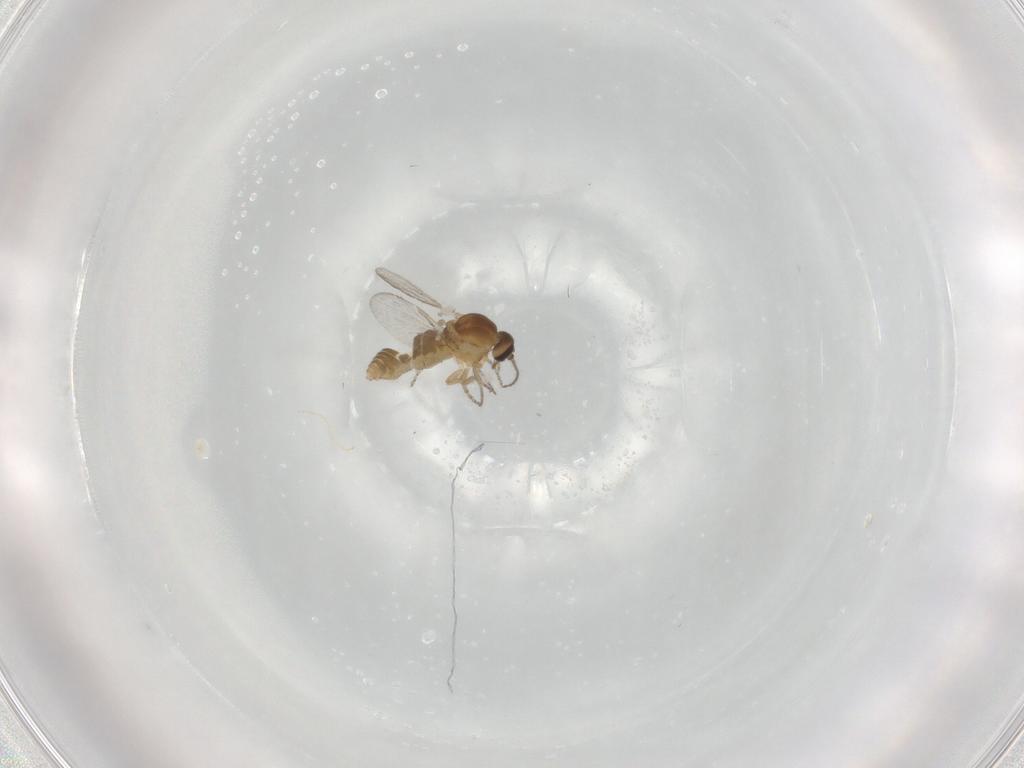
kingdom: Animalia
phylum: Arthropoda
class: Insecta
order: Diptera
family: Ceratopogonidae
